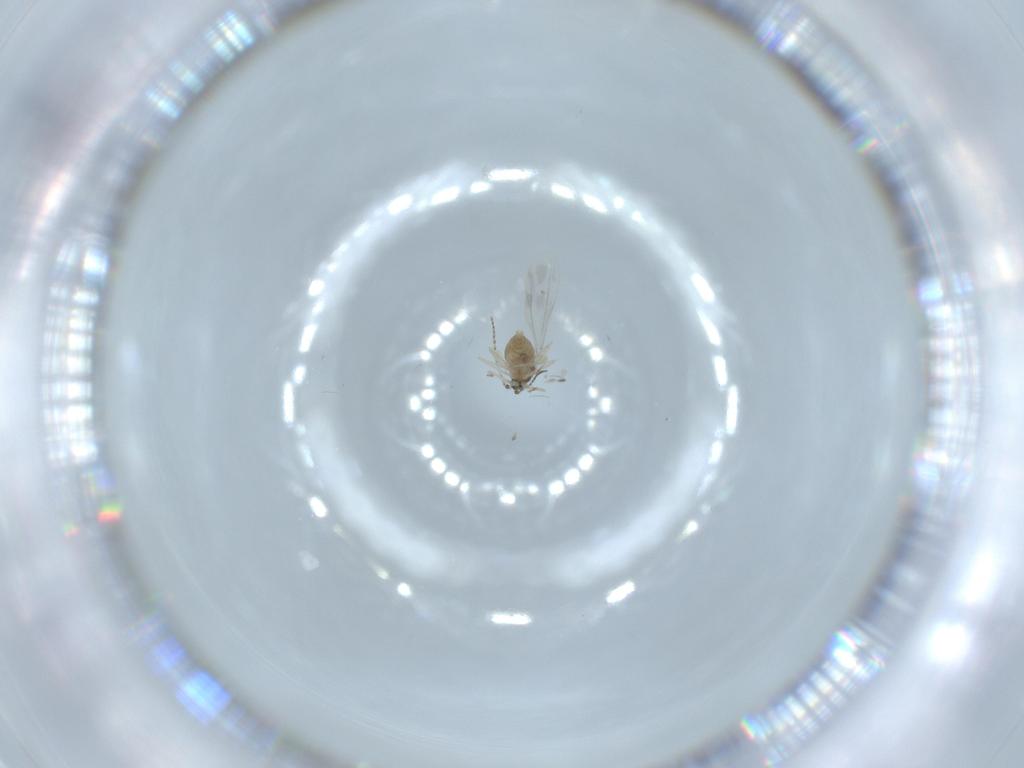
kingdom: Animalia
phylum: Arthropoda
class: Insecta
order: Diptera
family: Cecidomyiidae
